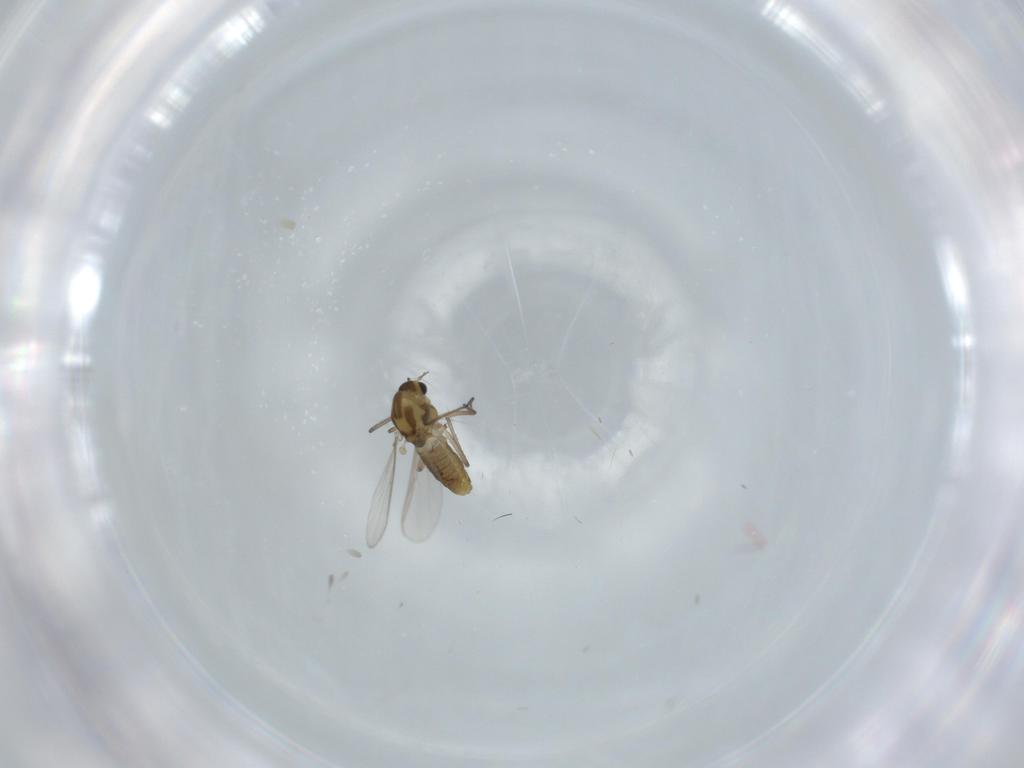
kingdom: Animalia
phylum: Arthropoda
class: Insecta
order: Diptera
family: Chironomidae
